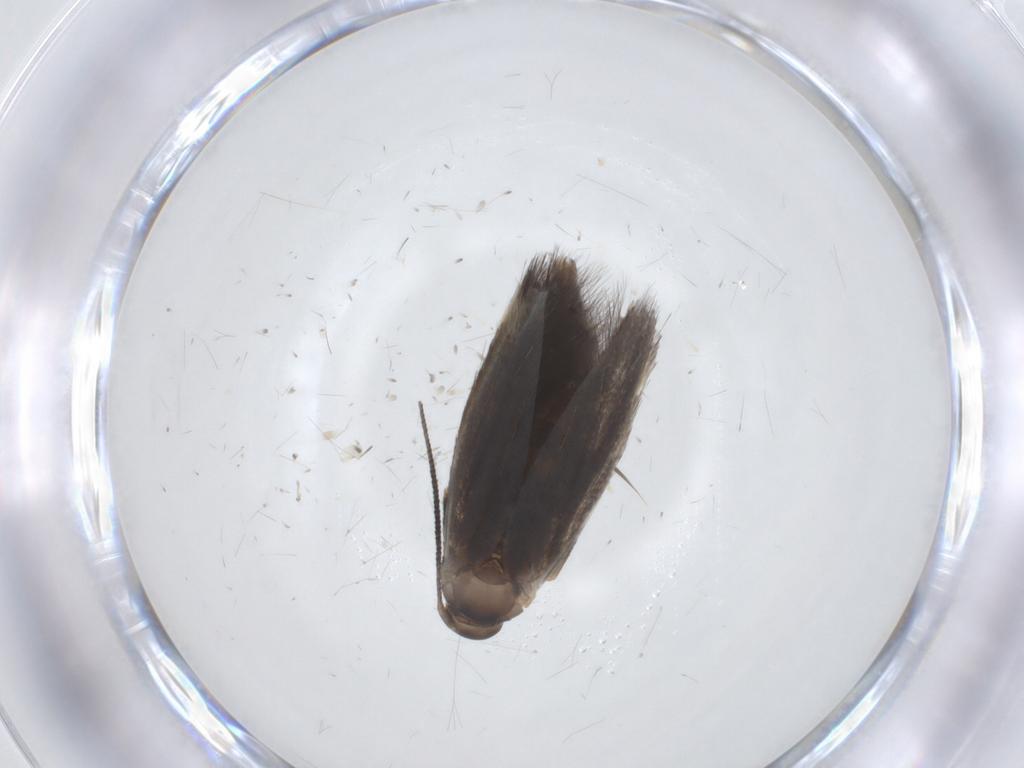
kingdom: Animalia
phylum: Arthropoda
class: Insecta
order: Lepidoptera
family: Elachistidae
